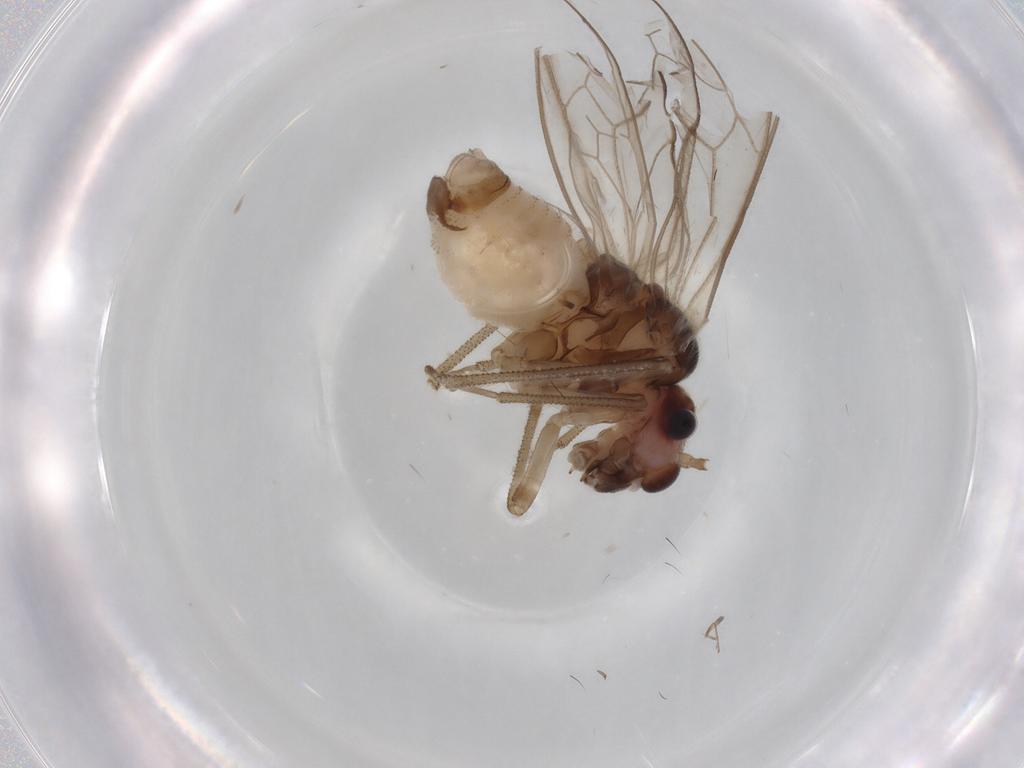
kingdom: Animalia
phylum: Arthropoda
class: Insecta
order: Psocodea
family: Stenopsocidae
